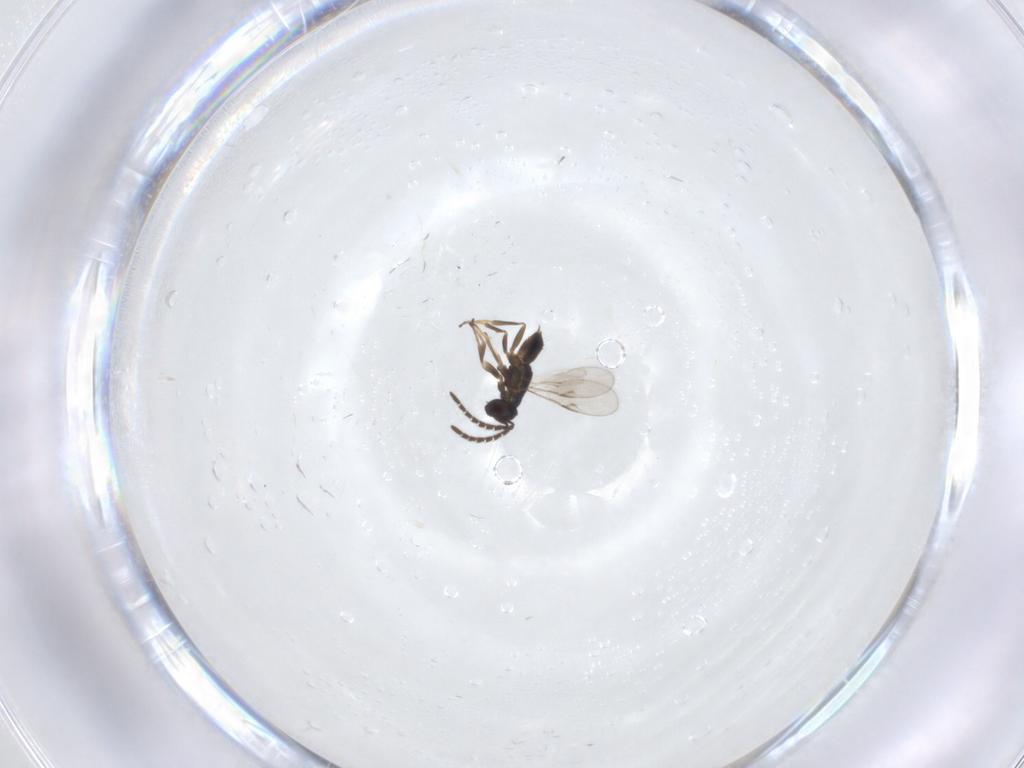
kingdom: Animalia
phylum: Arthropoda
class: Insecta
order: Hymenoptera
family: Encyrtidae
